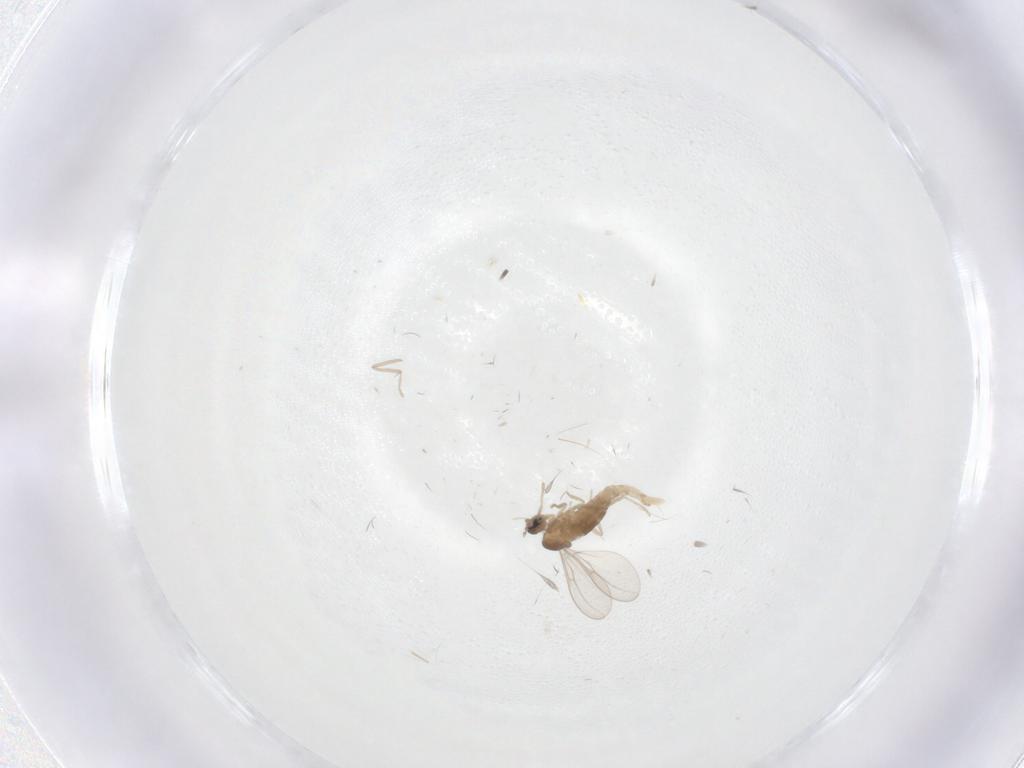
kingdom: Animalia
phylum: Arthropoda
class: Insecta
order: Diptera
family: Cecidomyiidae
